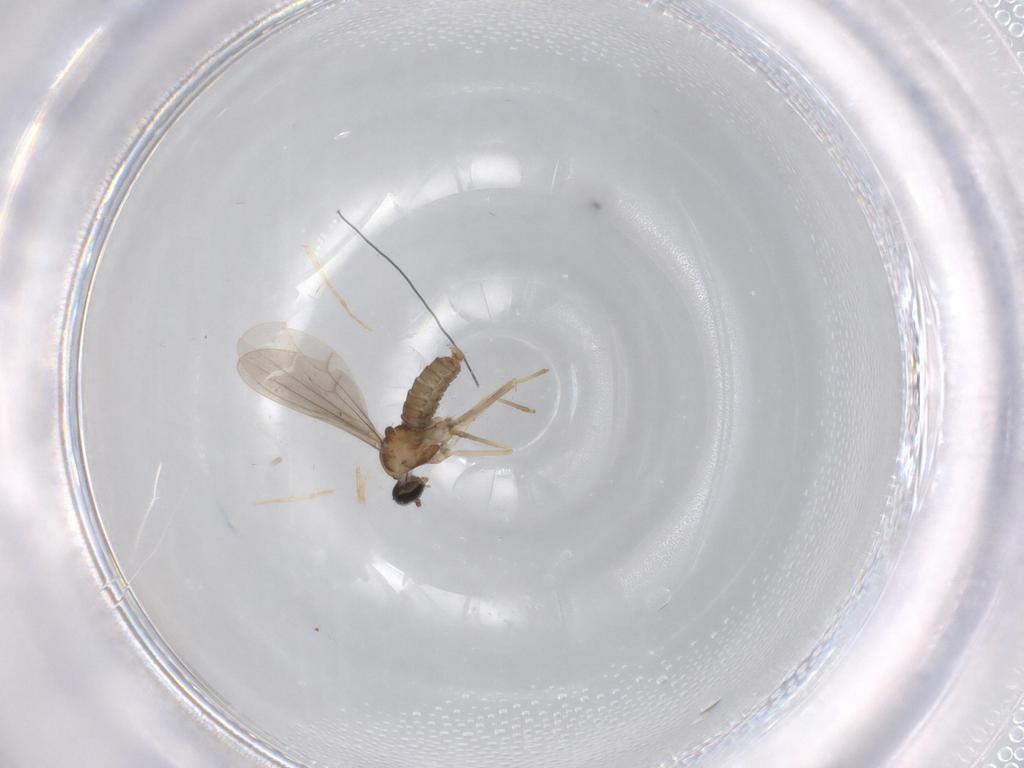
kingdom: Animalia
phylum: Arthropoda
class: Insecta
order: Diptera
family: Cecidomyiidae
